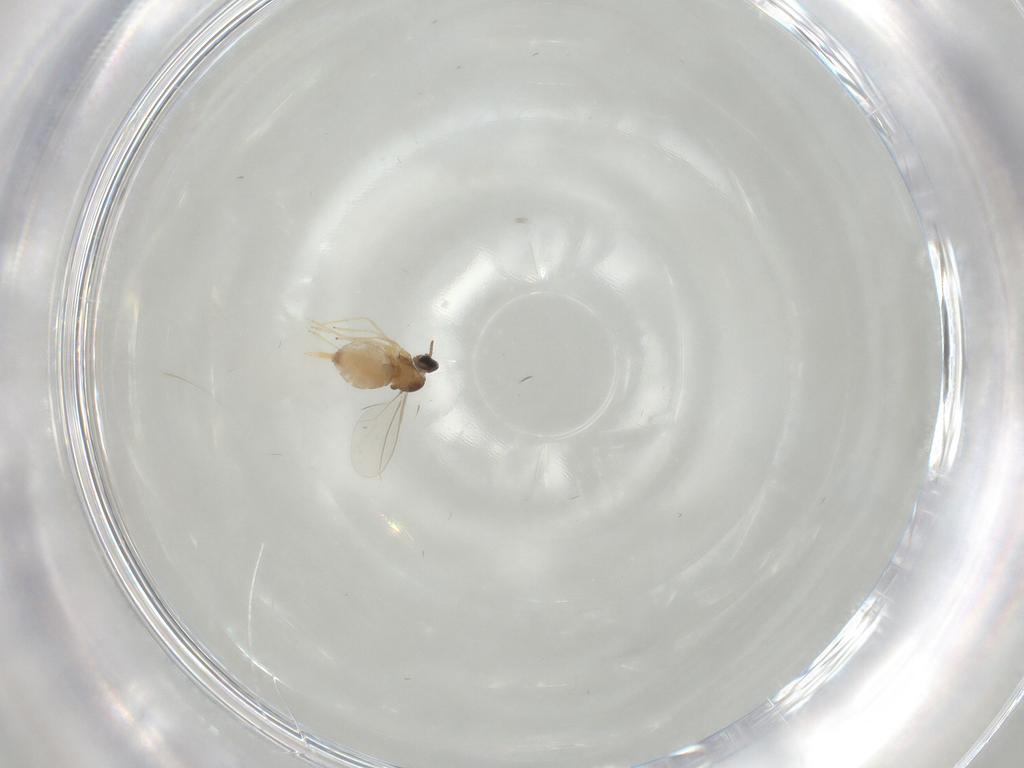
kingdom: Animalia
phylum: Arthropoda
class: Insecta
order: Diptera
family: Cecidomyiidae
